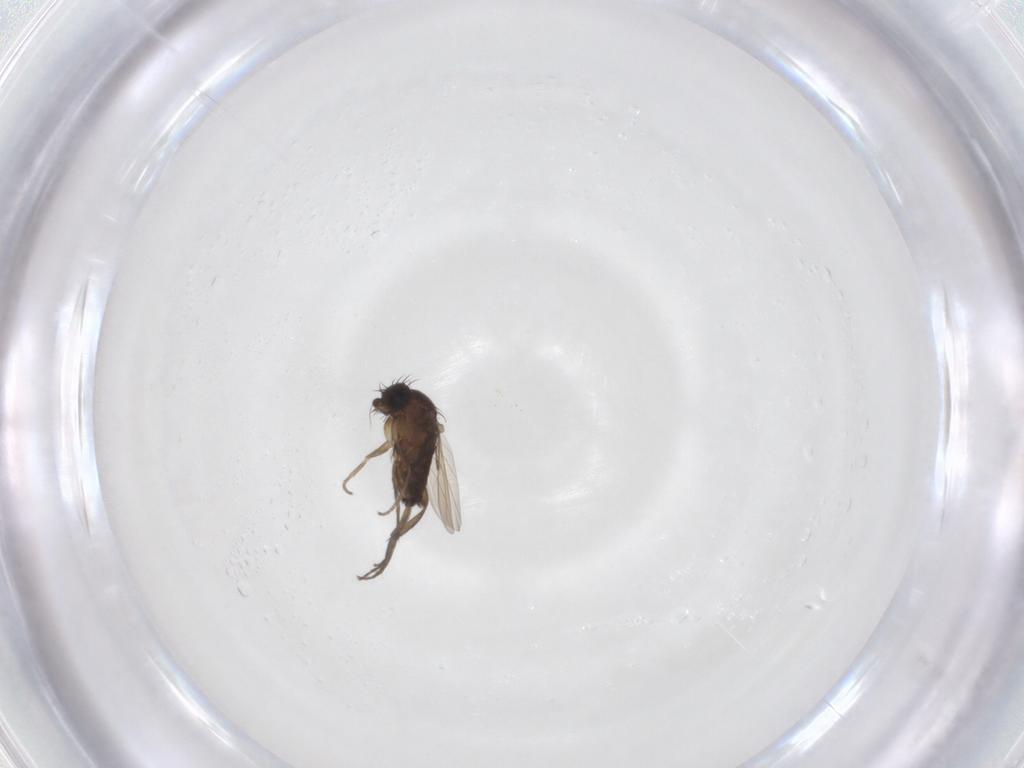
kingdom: Animalia
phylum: Arthropoda
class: Insecta
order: Diptera
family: Phoridae
